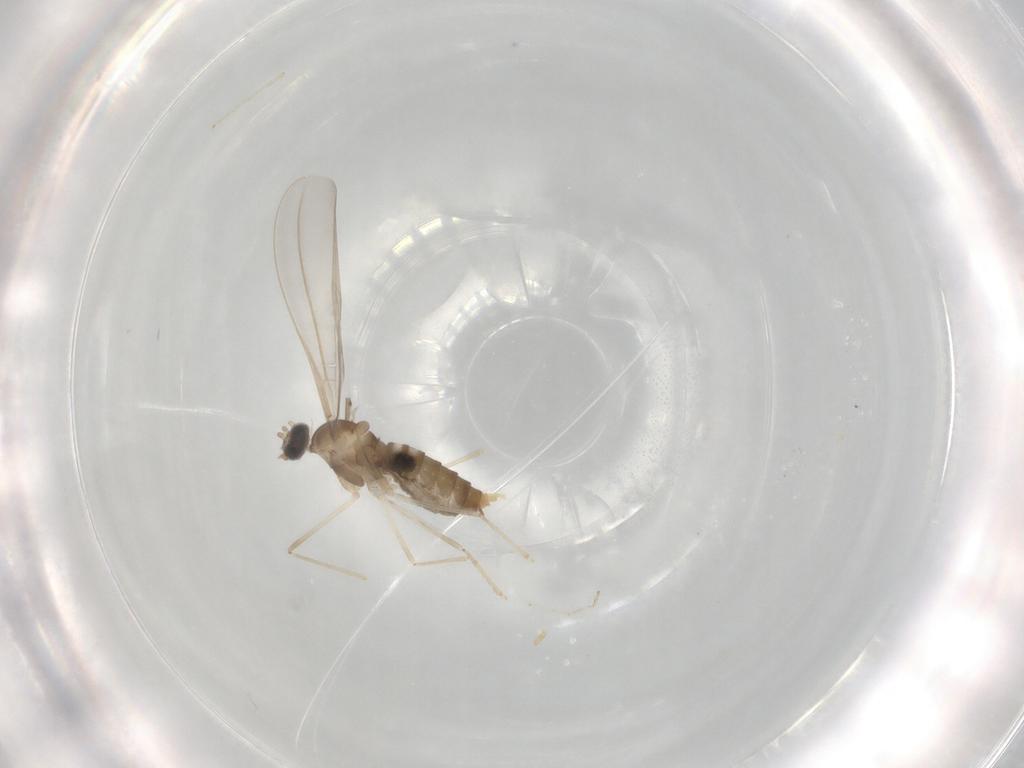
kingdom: Animalia
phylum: Arthropoda
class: Insecta
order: Diptera
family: Cecidomyiidae
